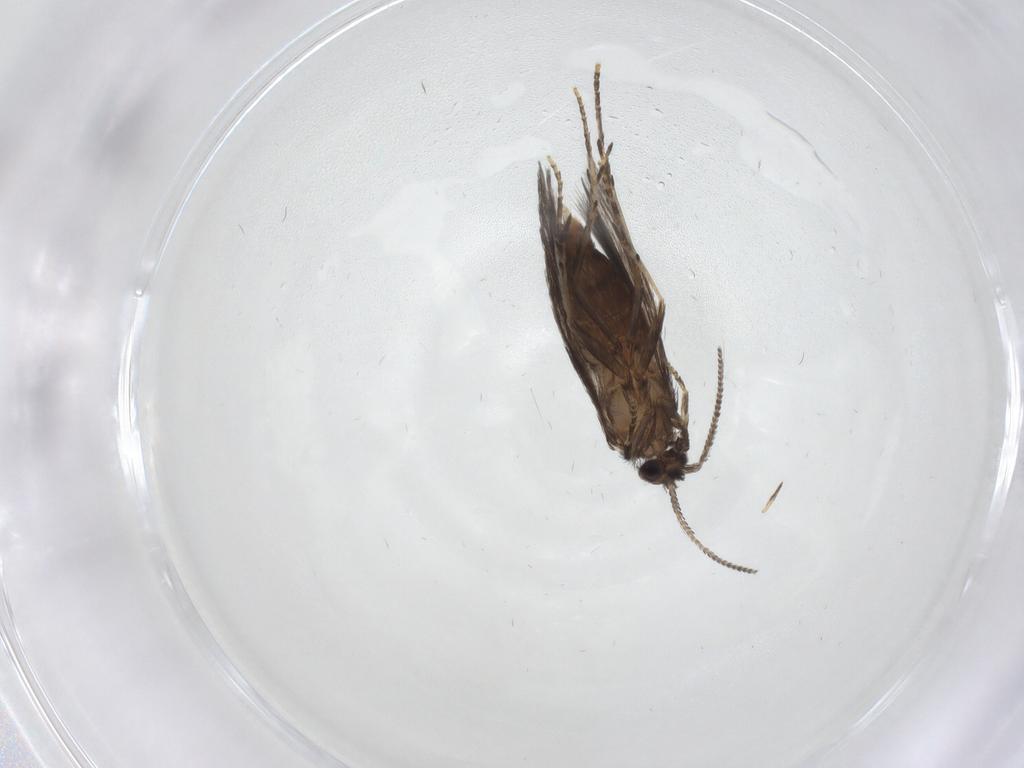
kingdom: Animalia
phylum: Arthropoda
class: Insecta
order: Trichoptera
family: Hydroptilidae
